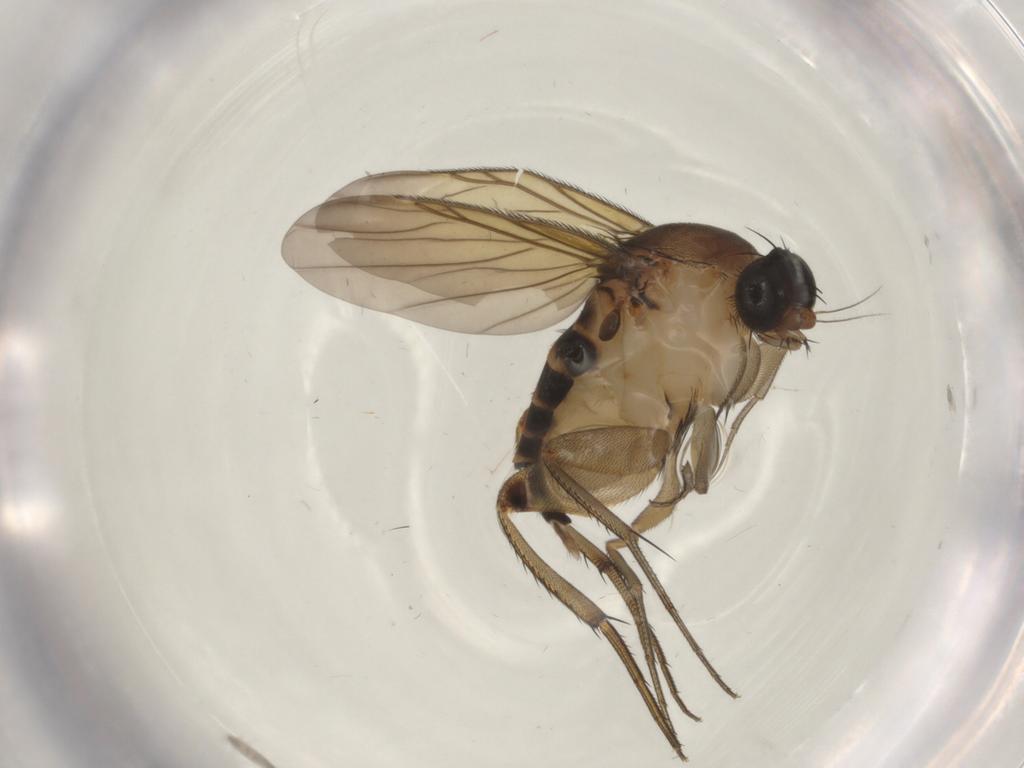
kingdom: Animalia
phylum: Arthropoda
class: Insecta
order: Diptera
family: Phoridae
